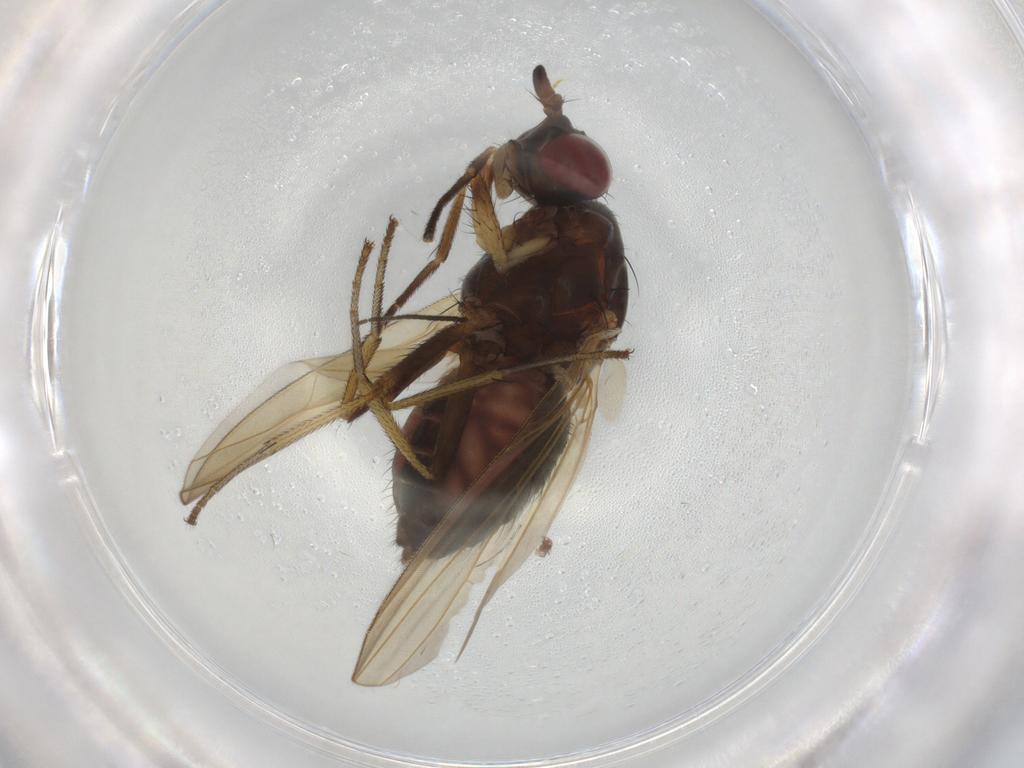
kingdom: Animalia
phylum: Arthropoda
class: Insecta
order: Diptera
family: Sciaridae
